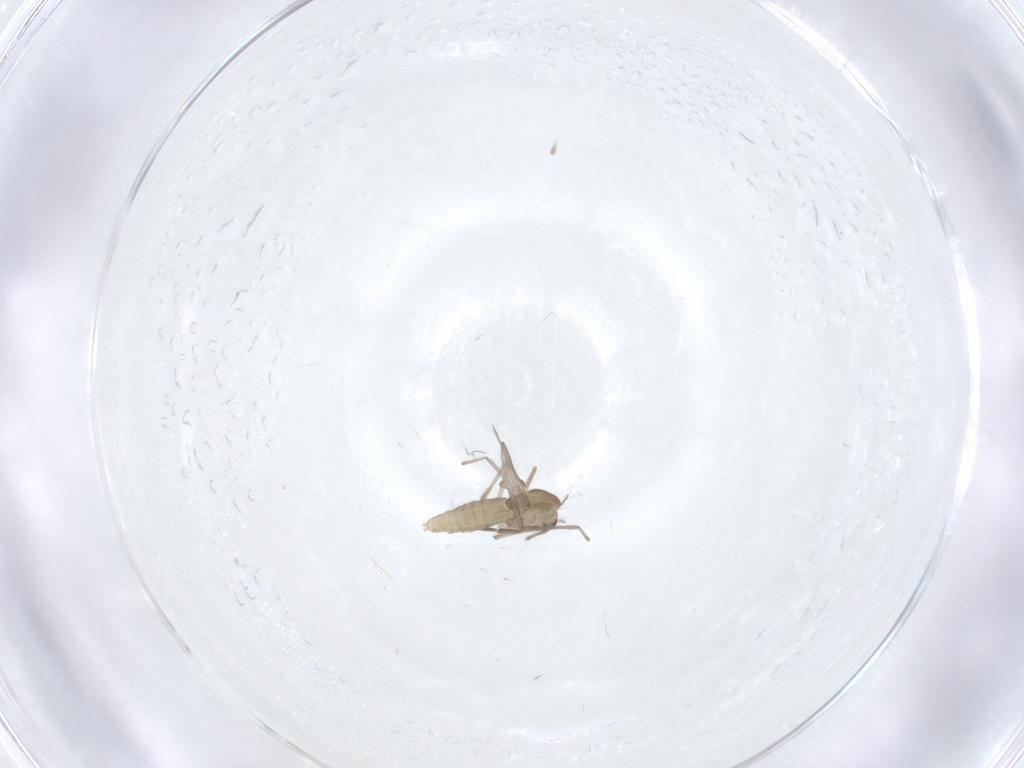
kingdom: Animalia
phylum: Arthropoda
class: Insecta
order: Diptera
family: Chironomidae
